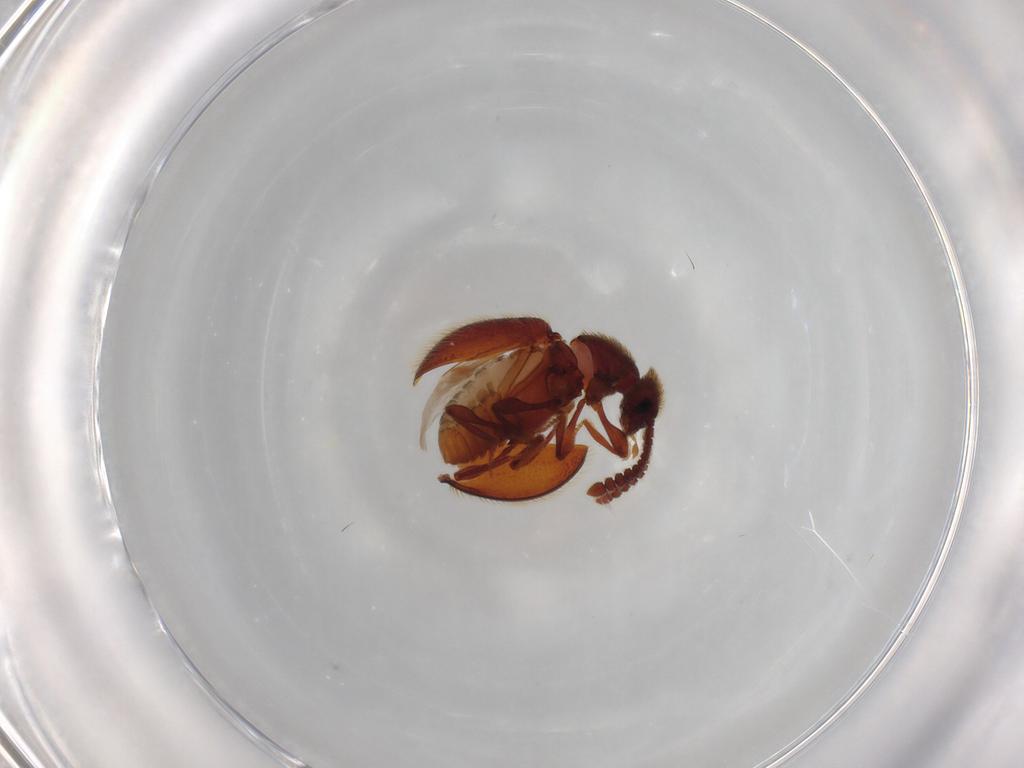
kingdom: Animalia
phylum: Arthropoda
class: Insecta
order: Coleoptera
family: Staphylinidae
